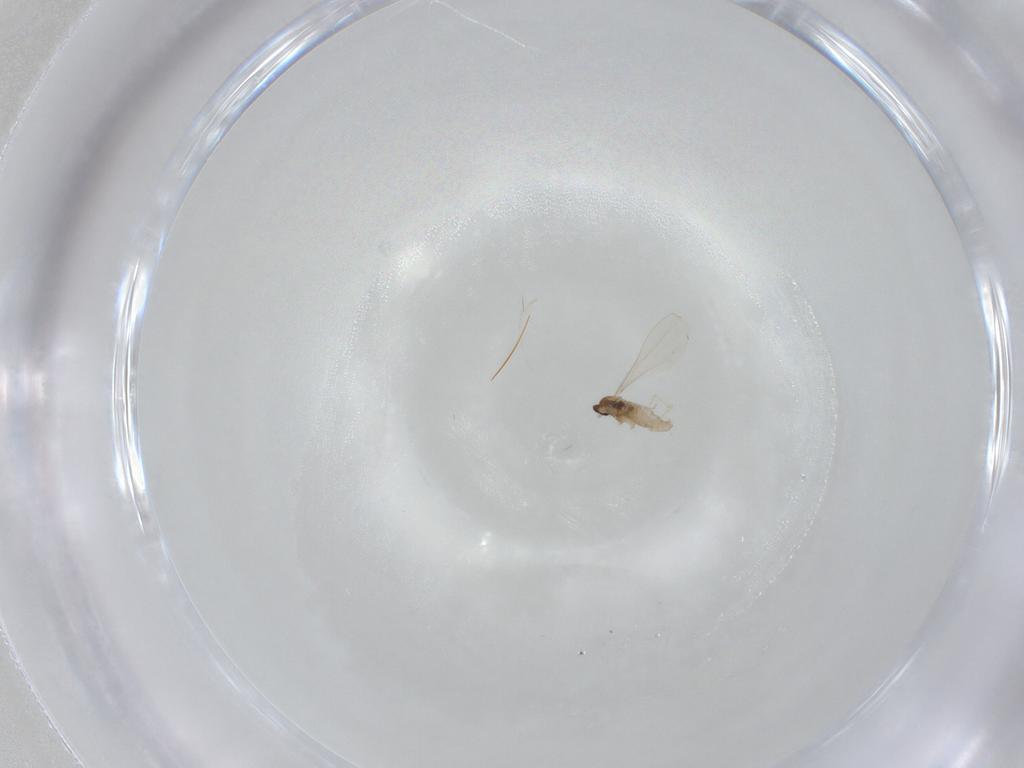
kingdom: Animalia
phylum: Arthropoda
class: Insecta
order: Diptera
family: Cecidomyiidae
